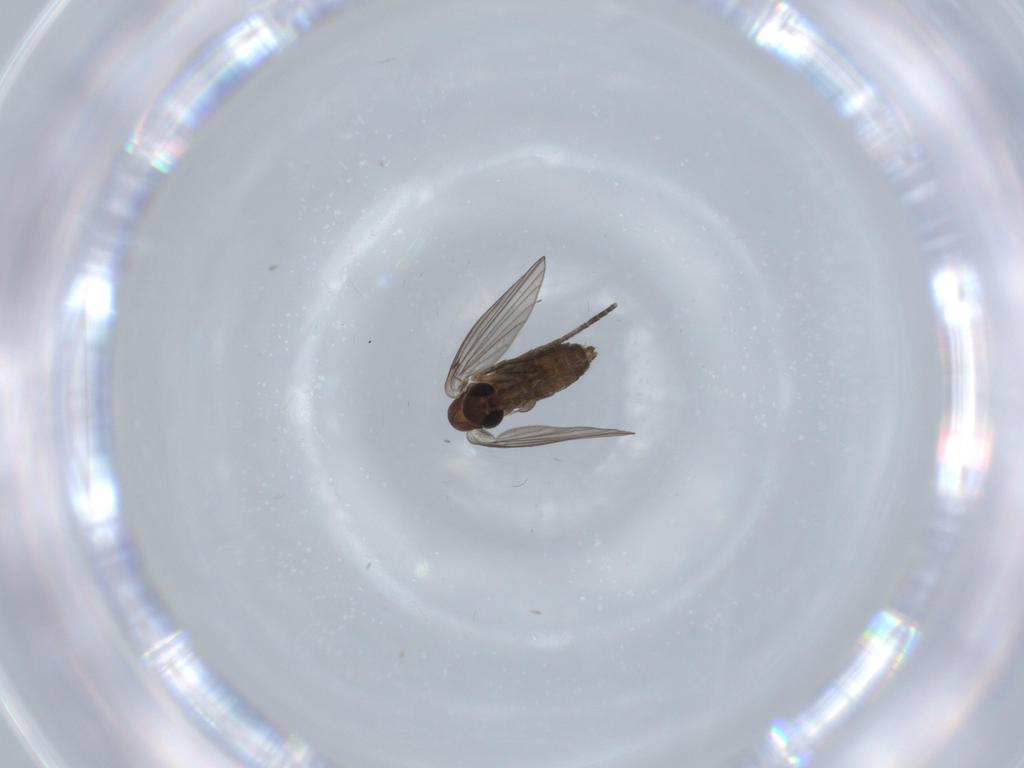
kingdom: Animalia
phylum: Arthropoda
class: Insecta
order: Diptera
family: Psychodidae
